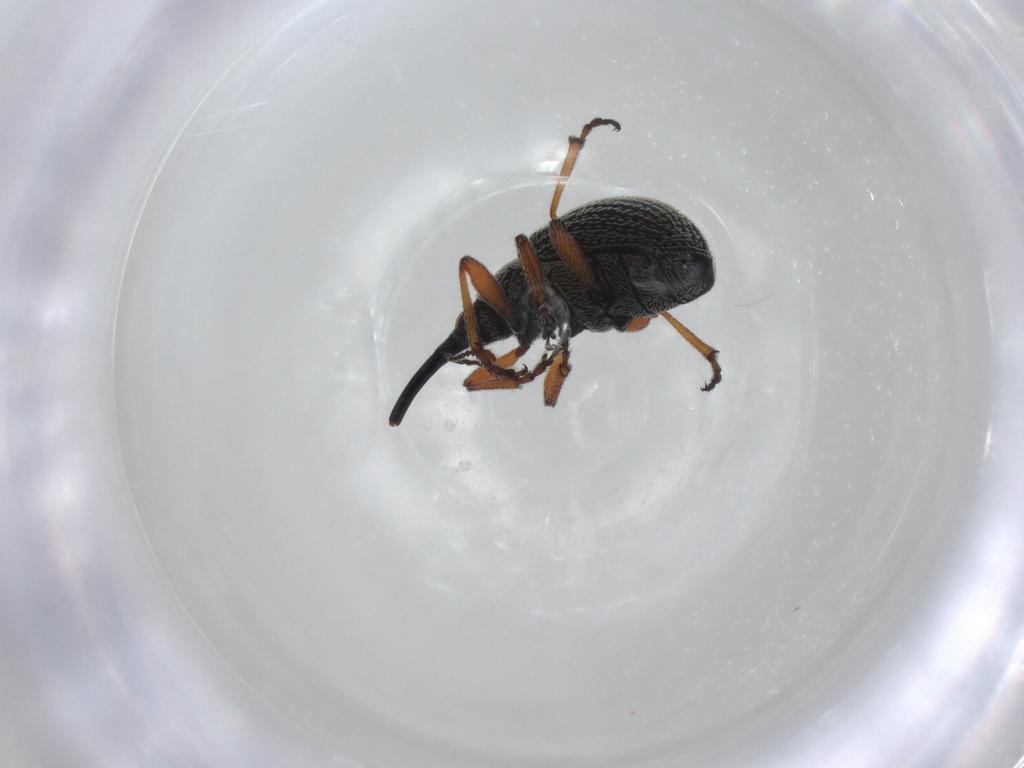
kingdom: Animalia
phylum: Arthropoda
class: Insecta
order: Coleoptera
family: Brentidae
